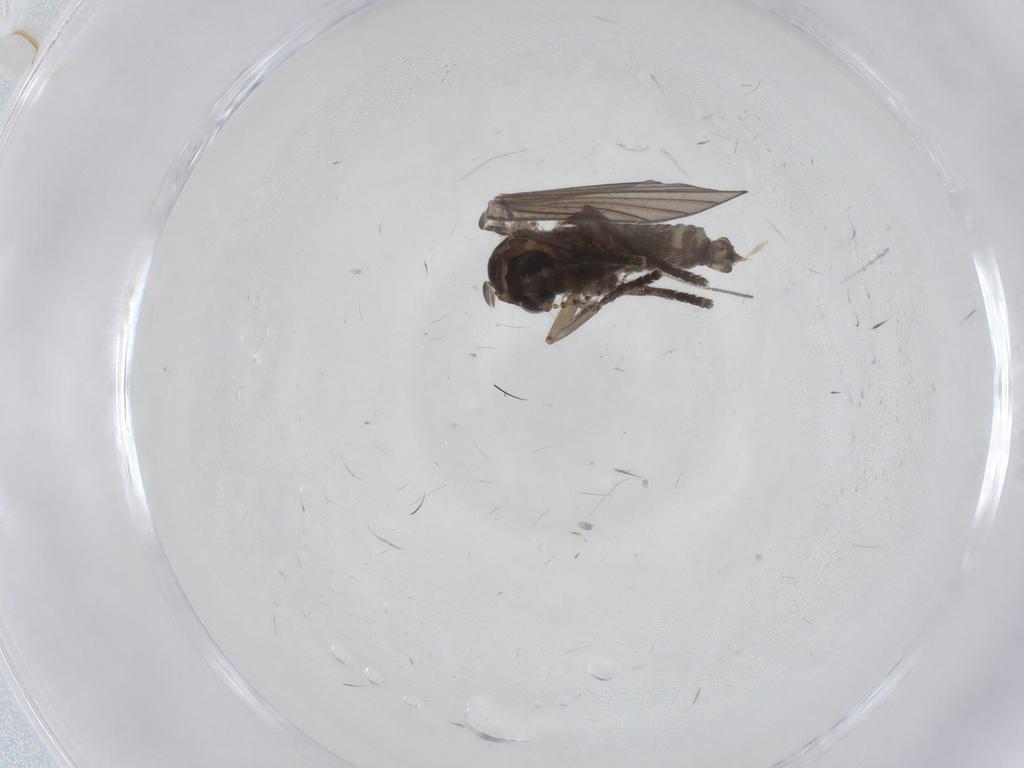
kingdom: Animalia
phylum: Arthropoda
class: Insecta
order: Diptera
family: Psychodidae
